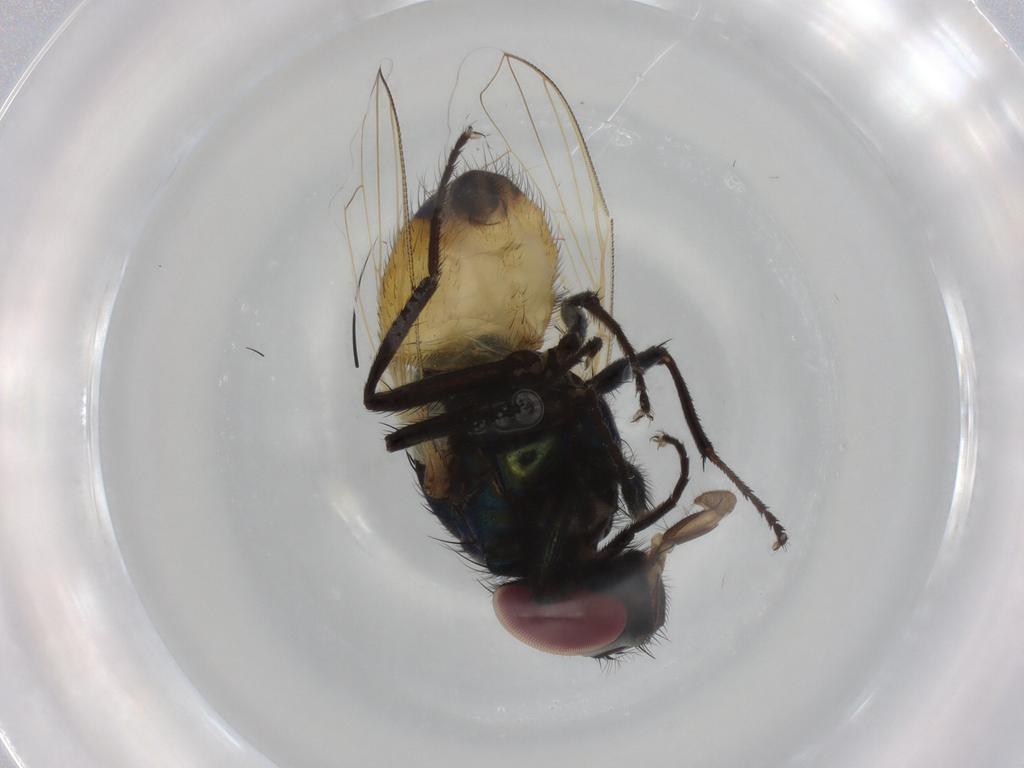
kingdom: Animalia
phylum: Arthropoda
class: Insecta
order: Diptera
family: Muscidae
